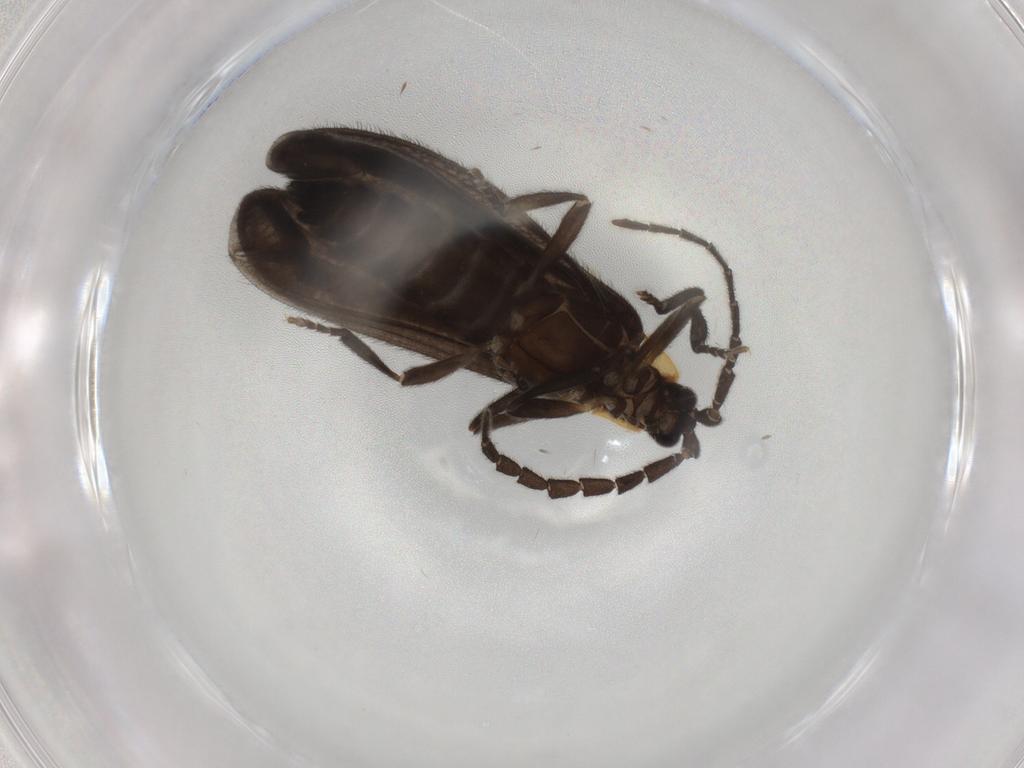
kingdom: Animalia
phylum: Arthropoda
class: Insecta
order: Coleoptera
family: Lycidae
